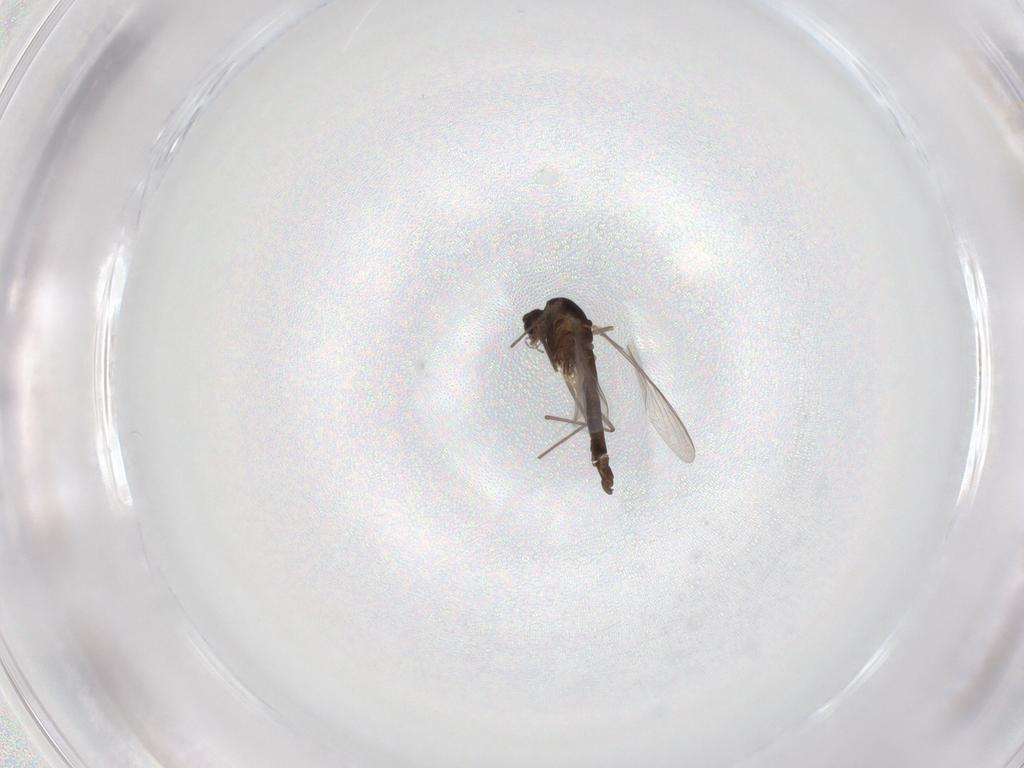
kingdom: Animalia
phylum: Arthropoda
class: Insecta
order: Diptera
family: Chironomidae
